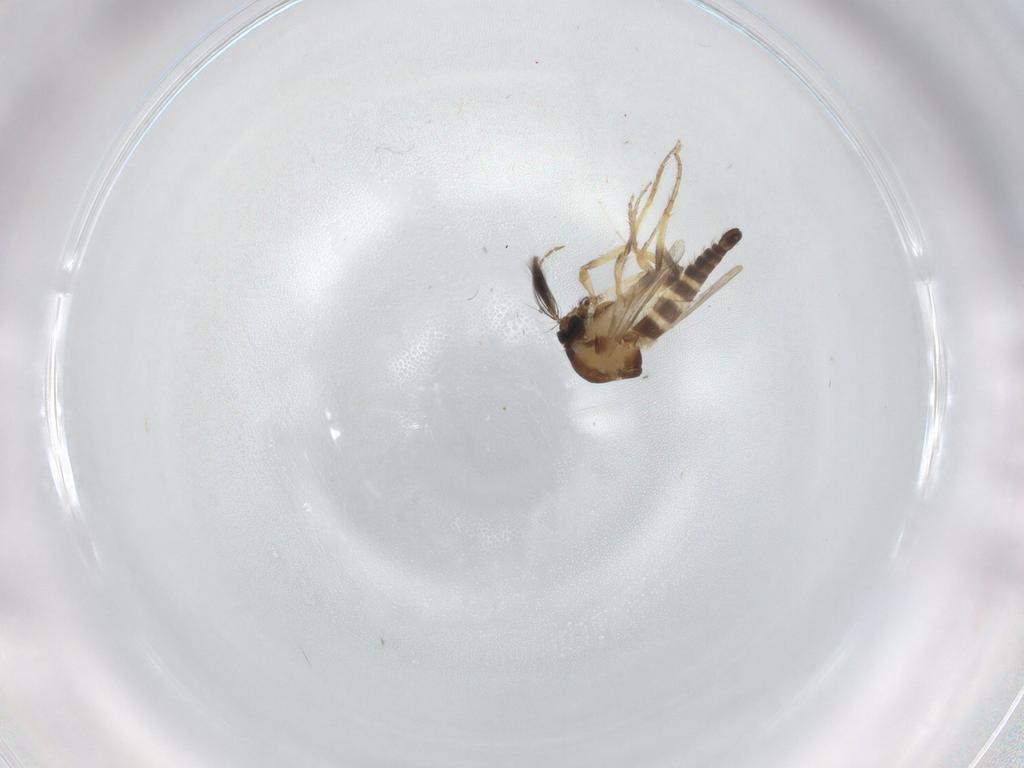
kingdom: Animalia
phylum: Arthropoda
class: Insecta
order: Diptera
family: Ceratopogonidae
